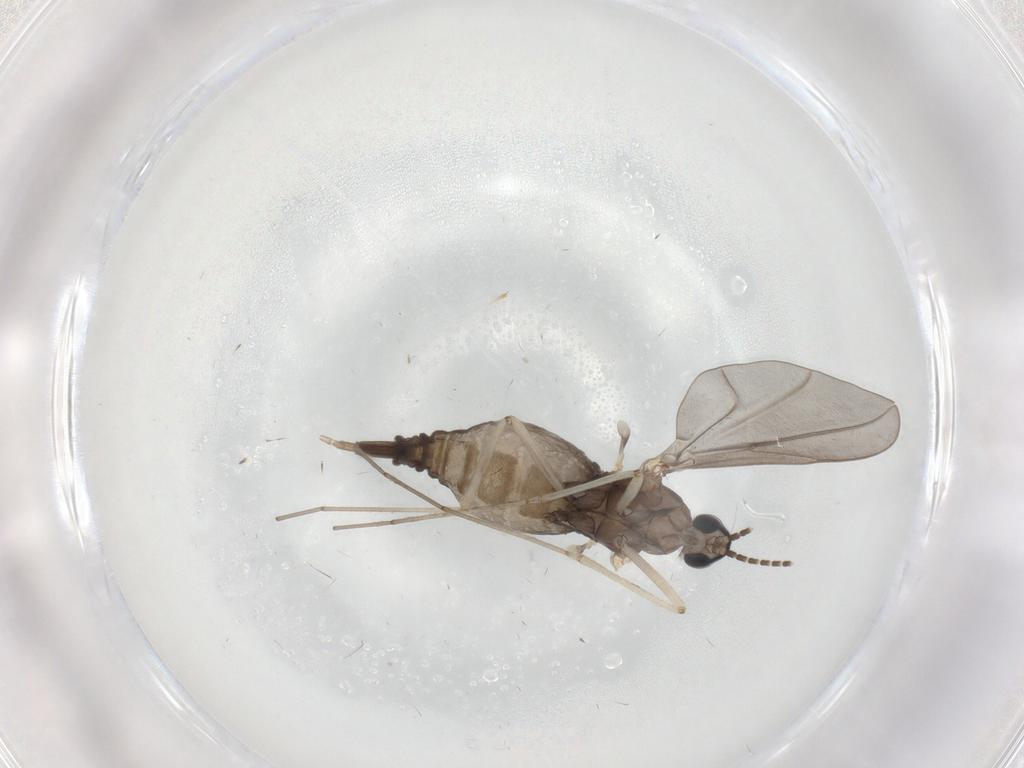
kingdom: Animalia
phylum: Arthropoda
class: Insecta
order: Diptera
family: Cecidomyiidae
